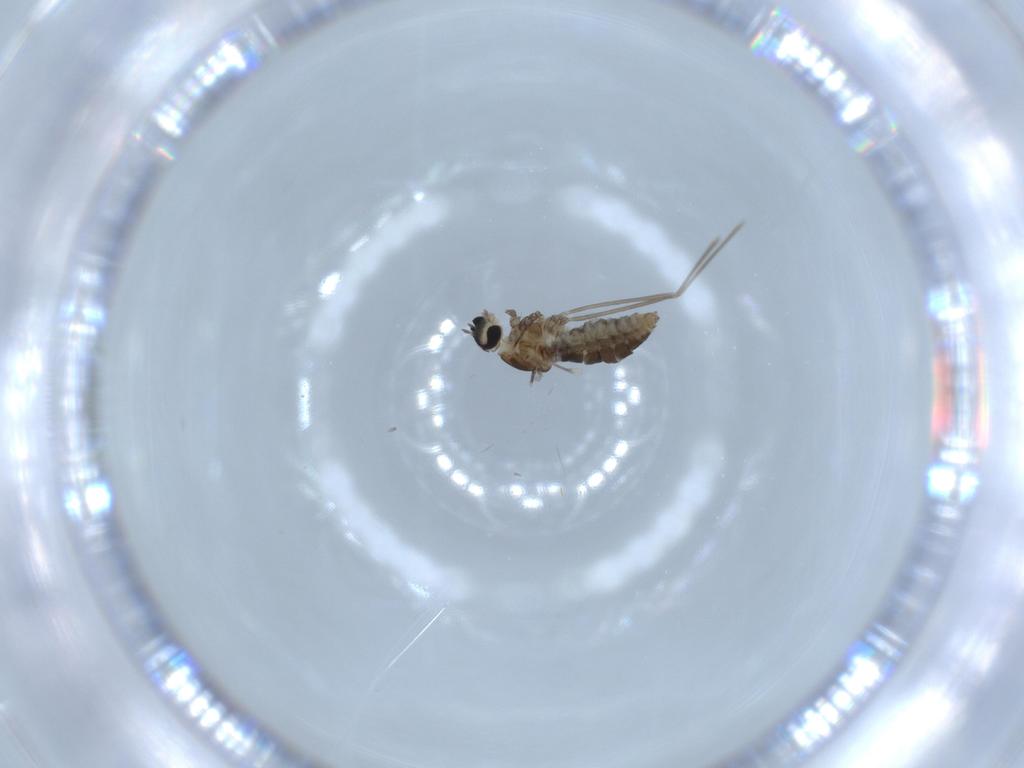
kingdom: Animalia
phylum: Arthropoda
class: Insecta
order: Diptera
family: Cecidomyiidae
